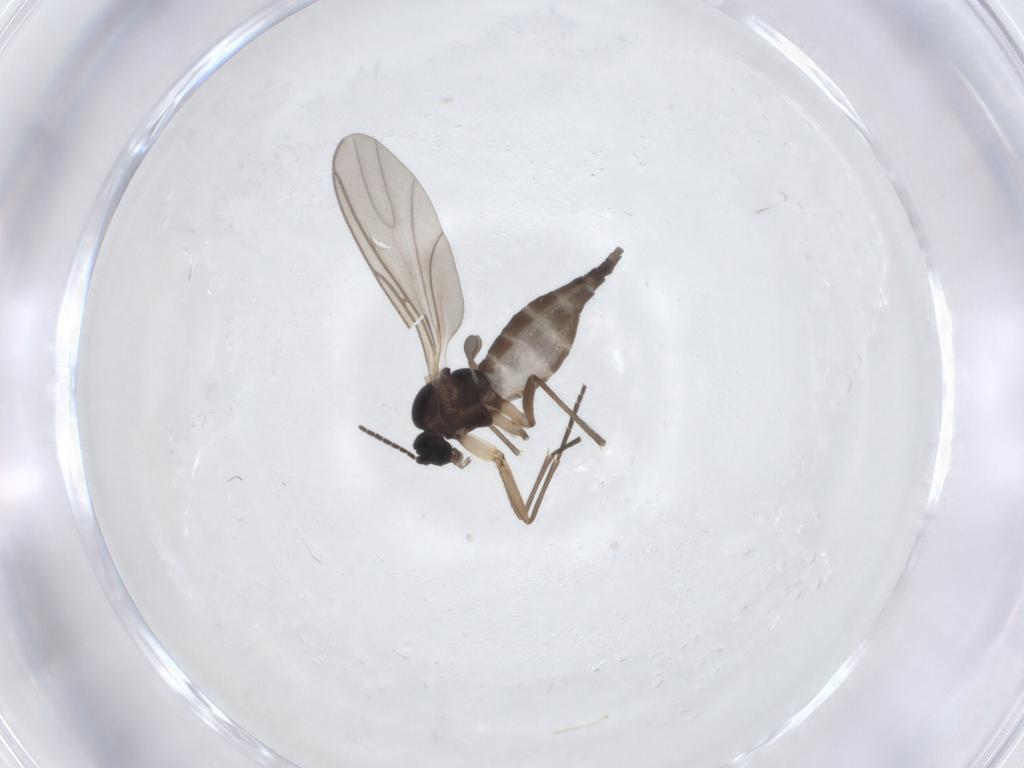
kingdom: Animalia
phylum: Arthropoda
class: Insecta
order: Diptera
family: Sciaridae
